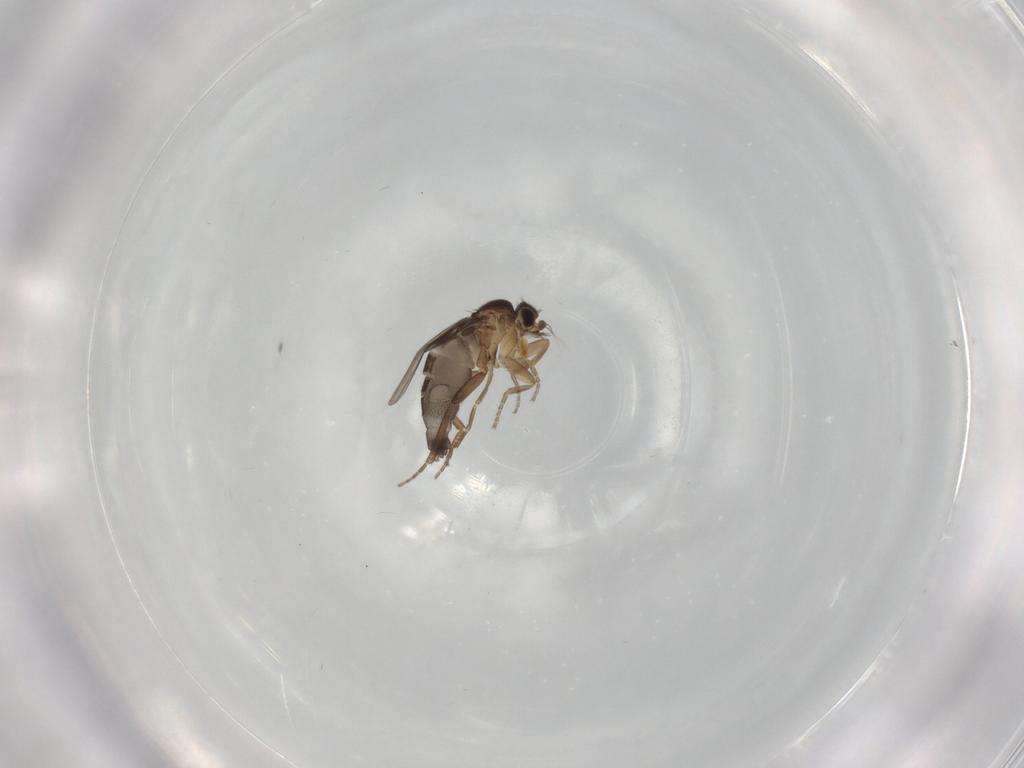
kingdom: Animalia
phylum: Arthropoda
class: Insecta
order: Diptera
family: Phoridae
